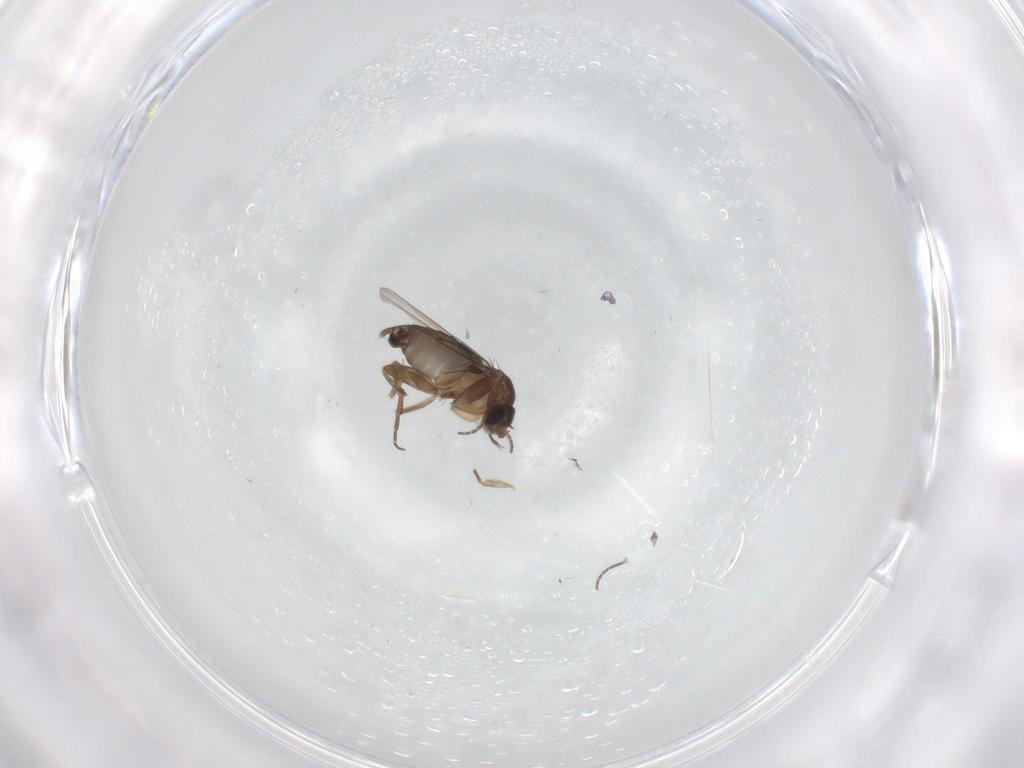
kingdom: Animalia
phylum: Arthropoda
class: Insecta
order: Diptera
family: Phoridae
